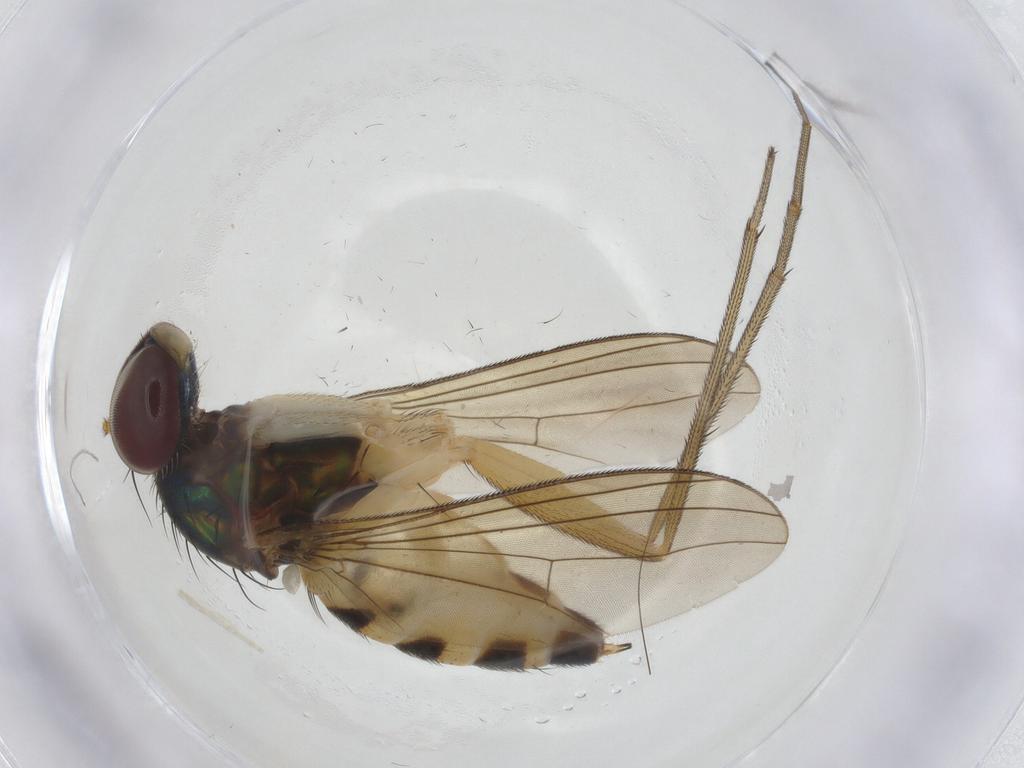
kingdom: Animalia
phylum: Arthropoda
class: Insecta
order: Diptera
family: Dolichopodidae
